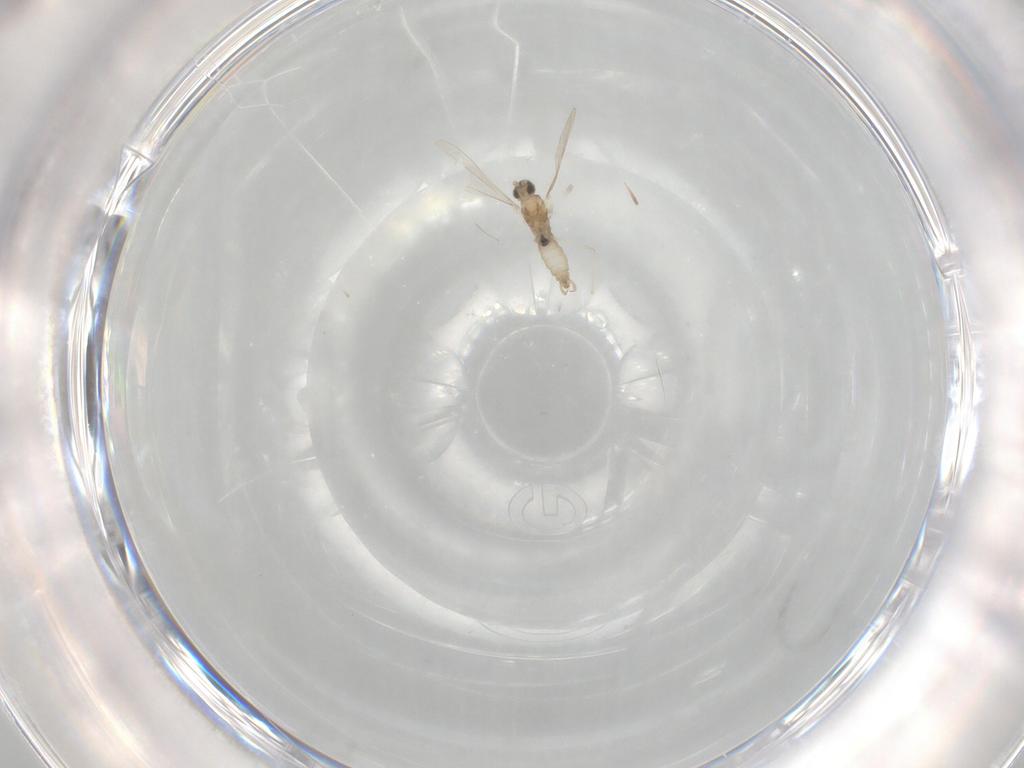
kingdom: Animalia
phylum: Arthropoda
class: Insecta
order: Diptera
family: Cecidomyiidae
